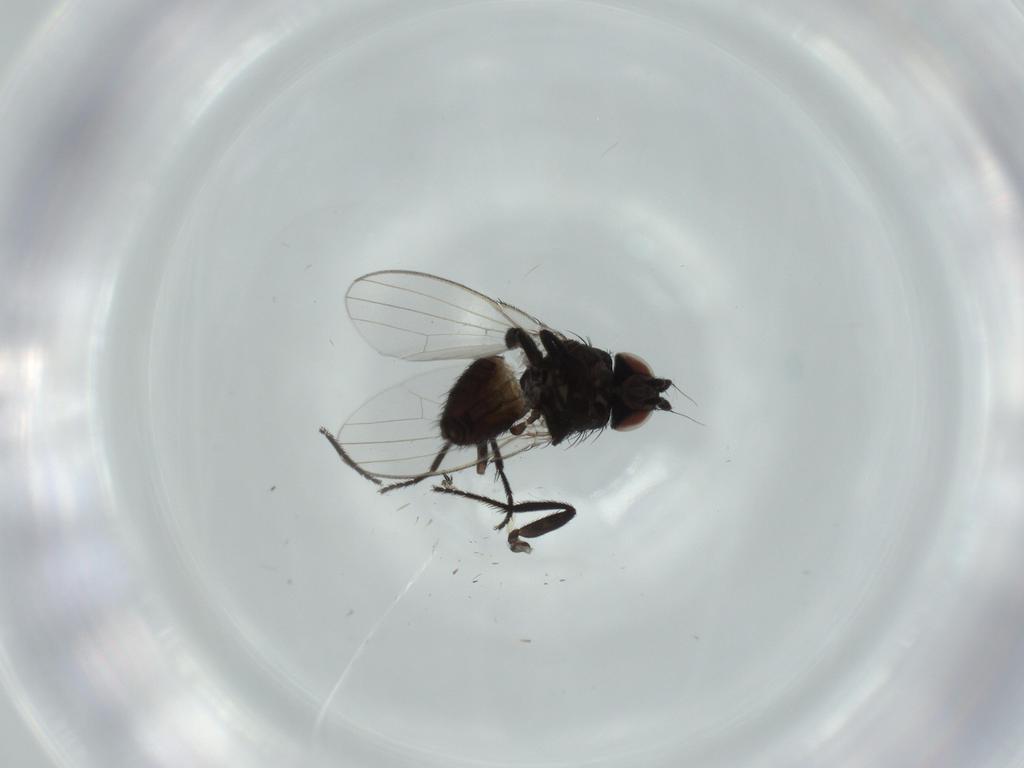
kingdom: Animalia
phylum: Arthropoda
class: Insecta
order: Diptera
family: Milichiidae
